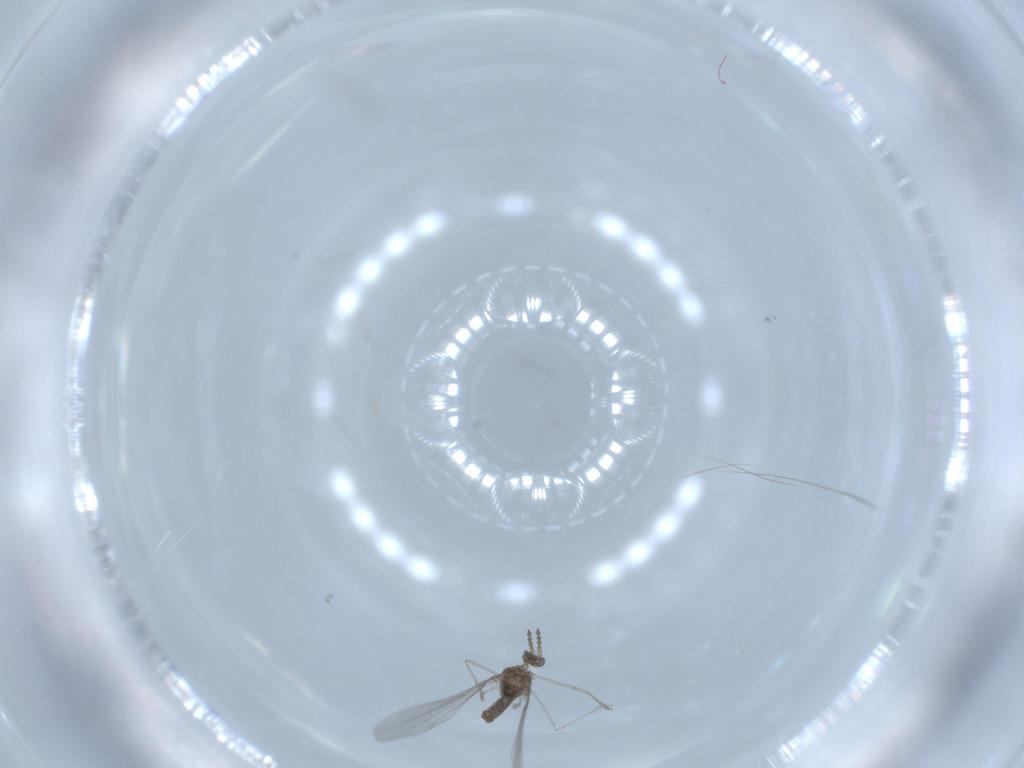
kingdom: Animalia
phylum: Arthropoda
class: Insecta
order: Diptera
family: Cecidomyiidae
